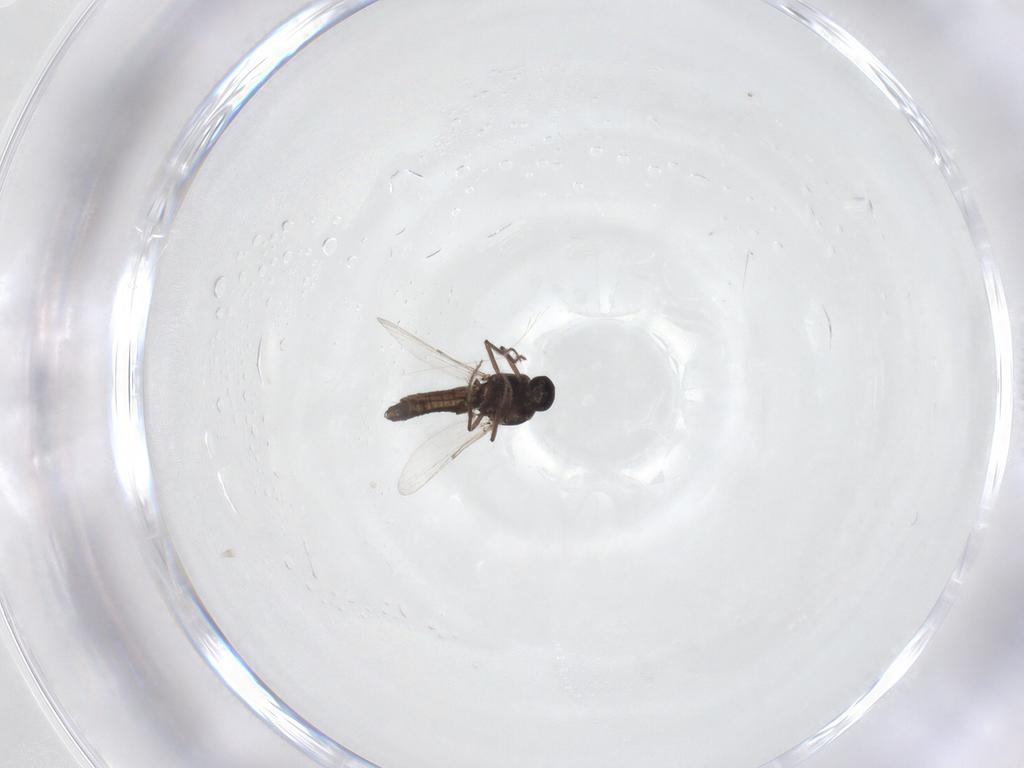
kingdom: Animalia
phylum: Arthropoda
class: Insecta
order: Diptera
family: Ceratopogonidae
